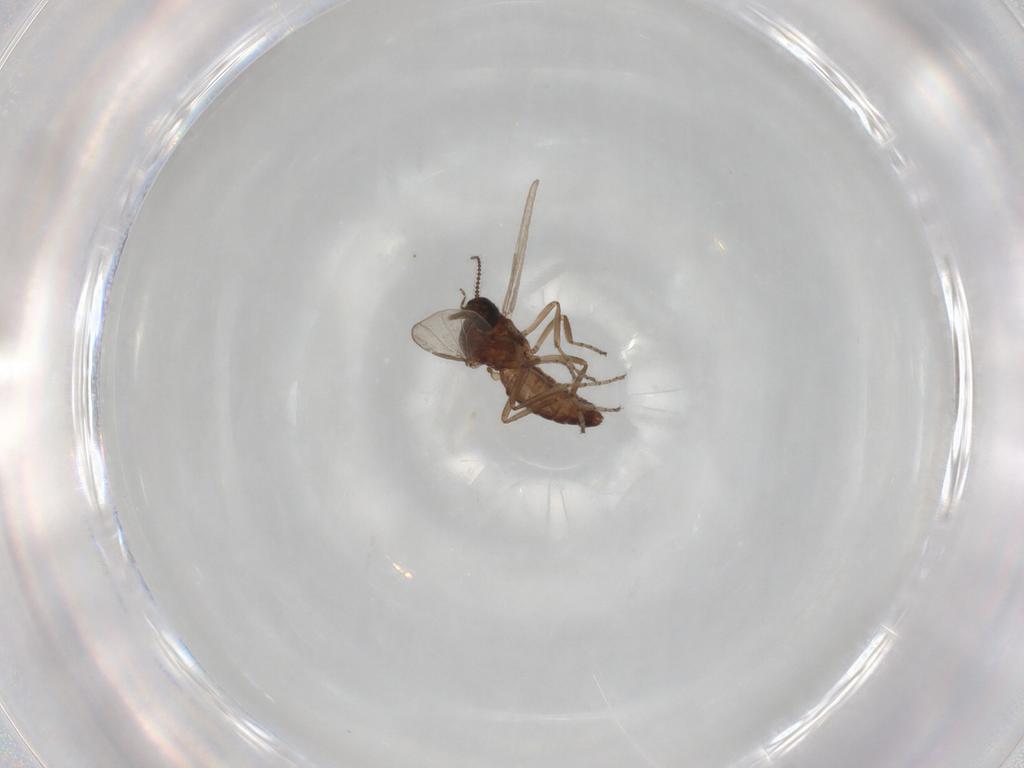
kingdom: Animalia
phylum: Arthropoda
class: Insecta
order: Diptera
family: Ceratopogonidae
